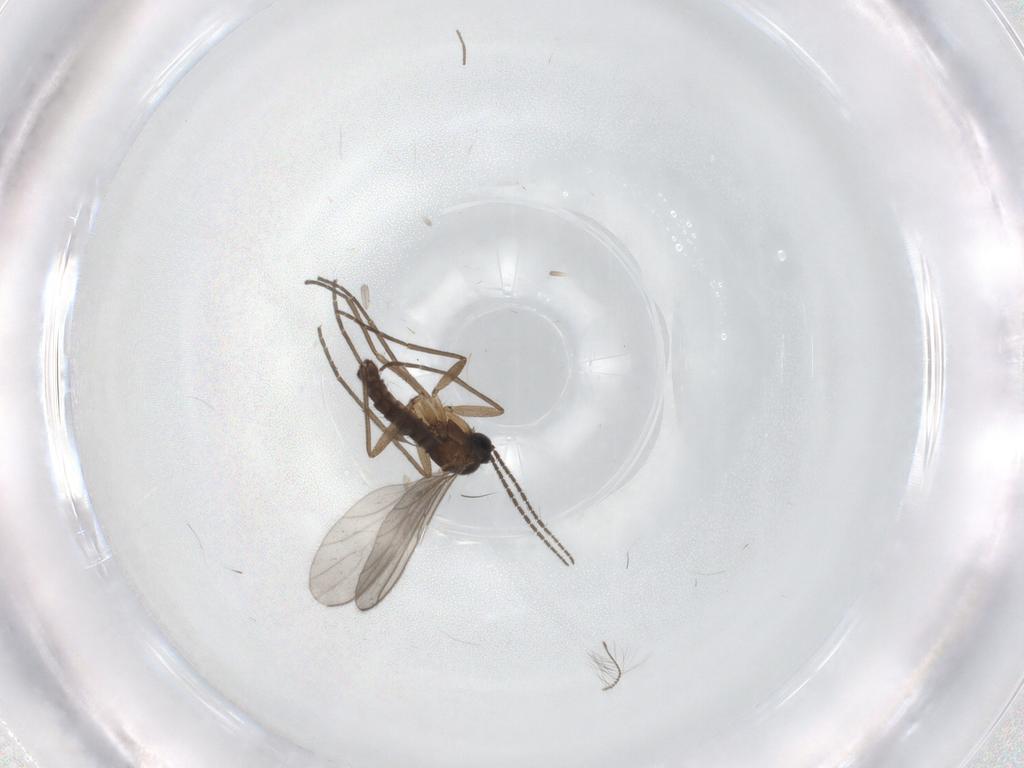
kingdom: Animalia
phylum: Arthropoda
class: Insecta
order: Diptera
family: Sciaridae
